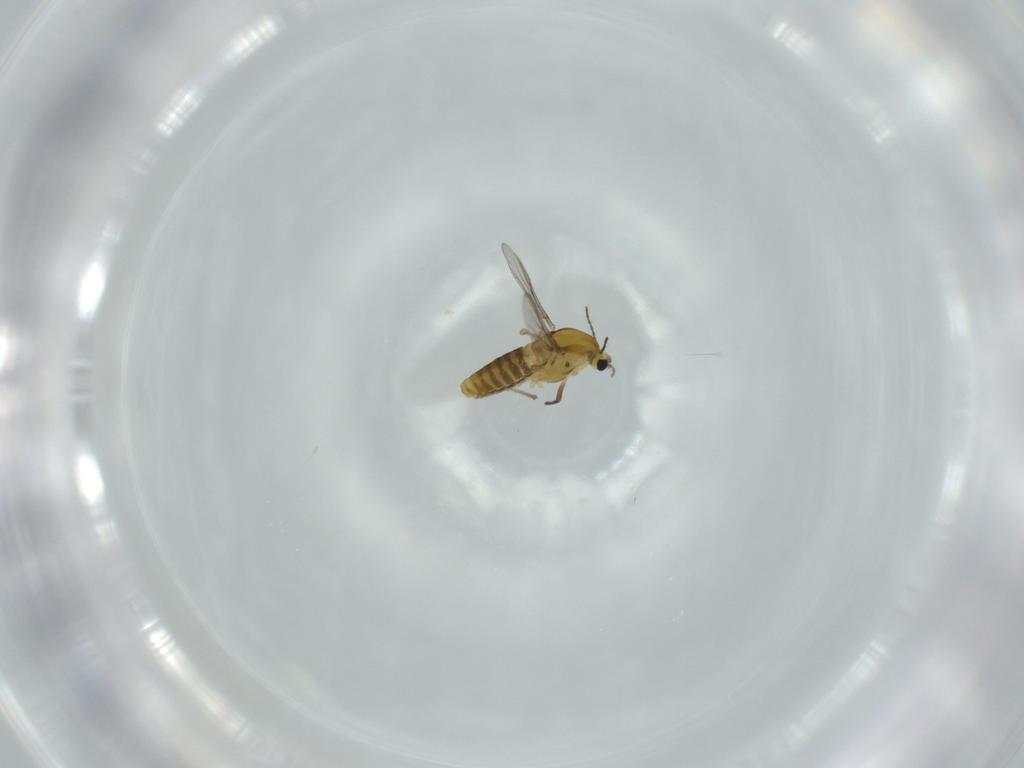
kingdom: Animalia
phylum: Arthropoda
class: Insecta
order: Diptera
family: Chironomidae
